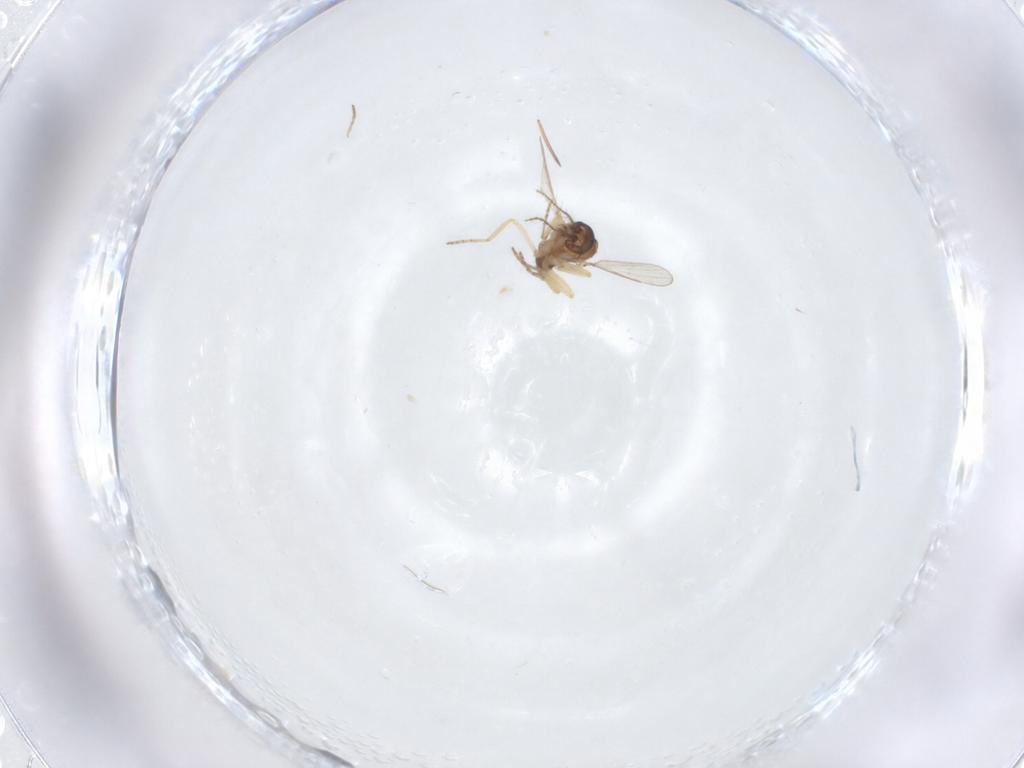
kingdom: Animalia
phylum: Arthropoda
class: Insecta
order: Diptera
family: Ceratopogonidae
